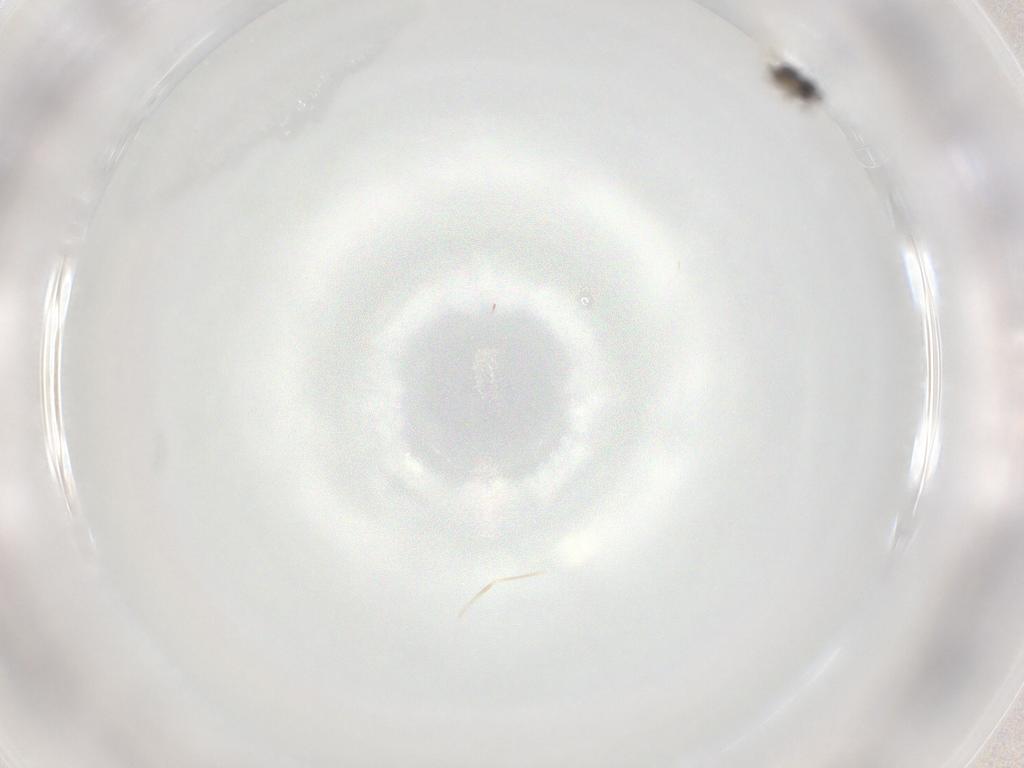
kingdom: Animalia
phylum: Arthropoda
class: Insecta
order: Diptera
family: Cecidomyiidae
